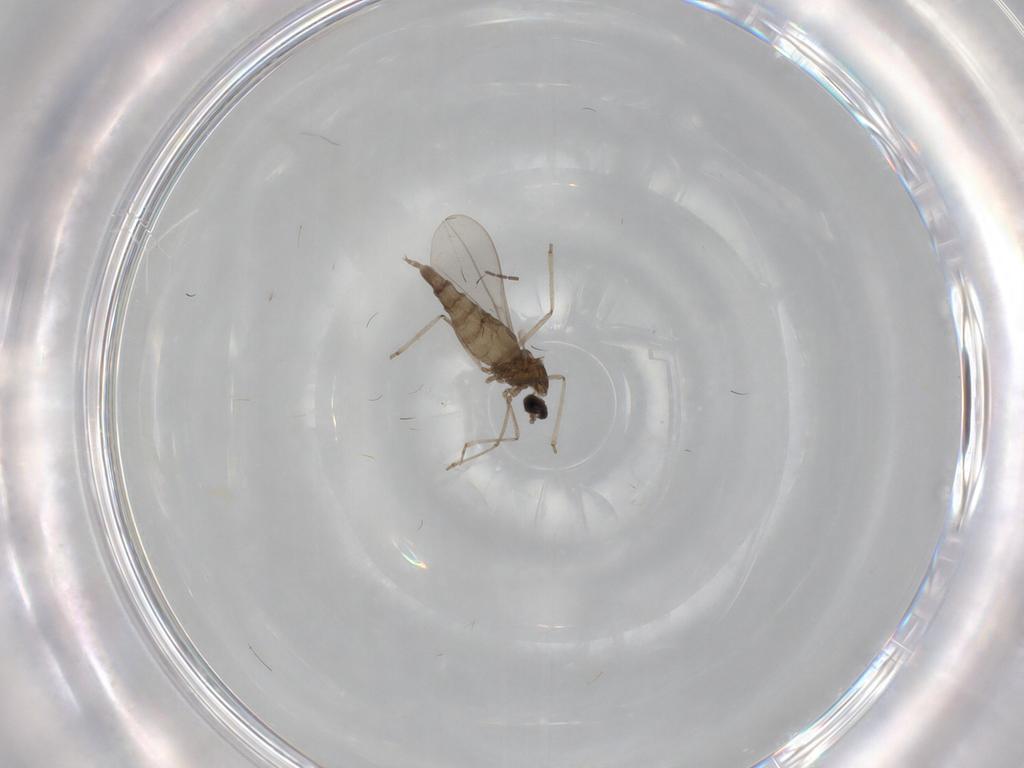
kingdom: Animalia
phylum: Arthropoda
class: Insecta
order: Diptera
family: Cecidomyiidae
